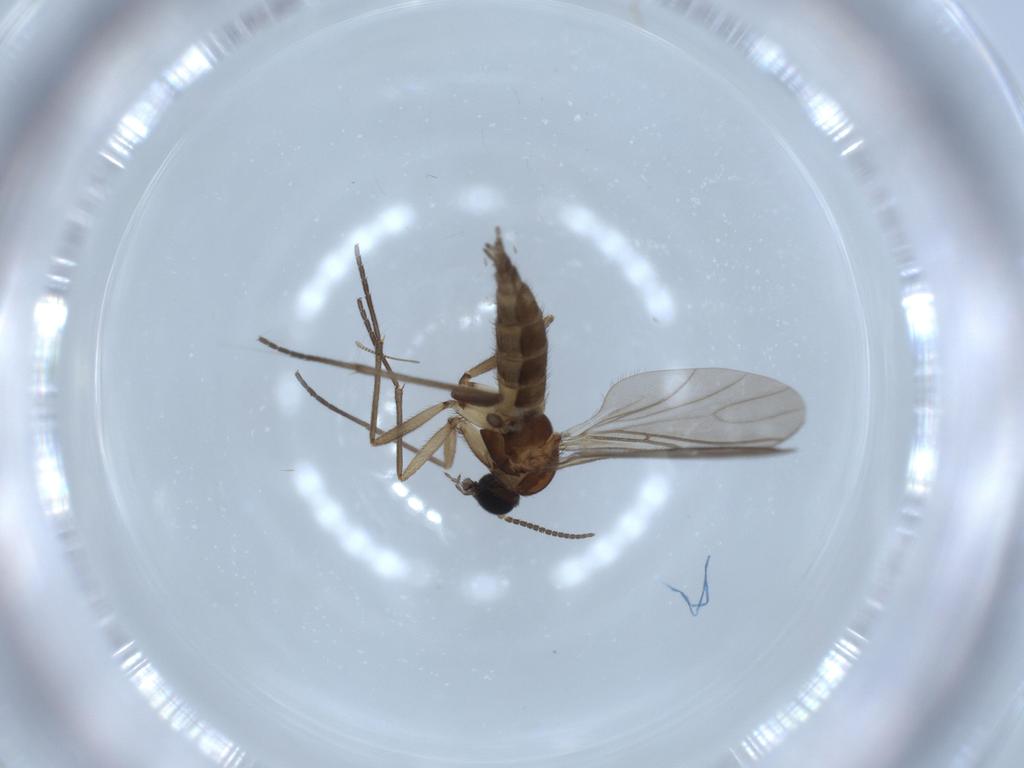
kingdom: Animalia
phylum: Arthropoda
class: Insecta
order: Diptera
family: Sciaridae
